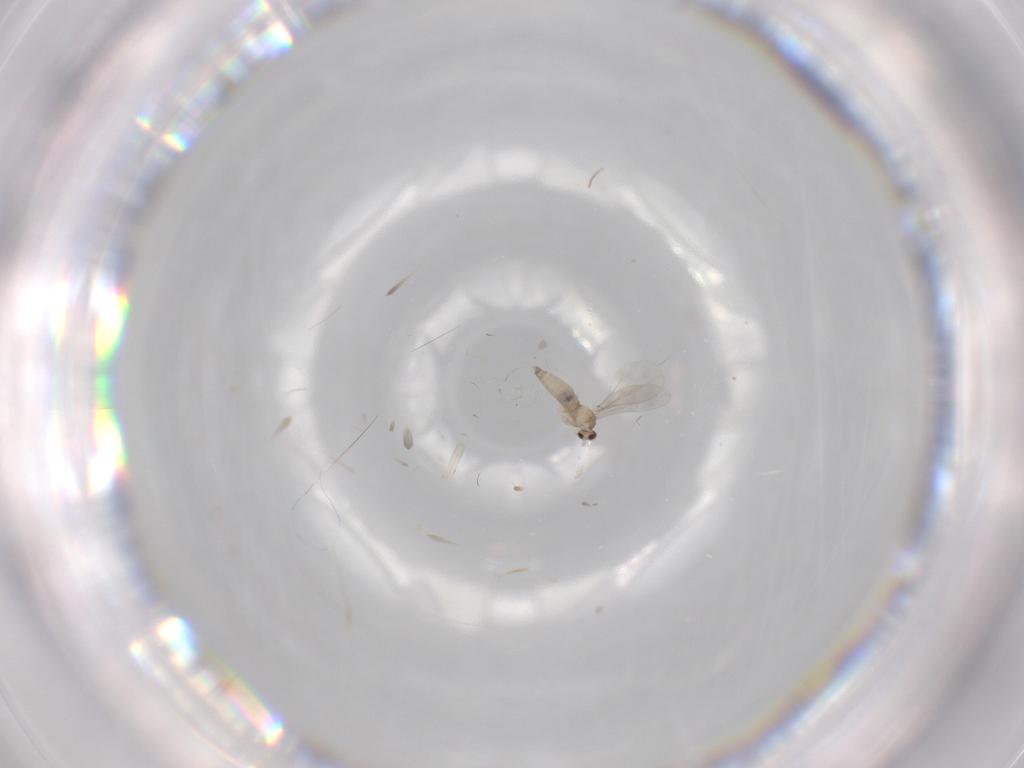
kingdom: Animalia
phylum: Arthropoda
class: Insecta
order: Diptera
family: Cecidomyiidae
